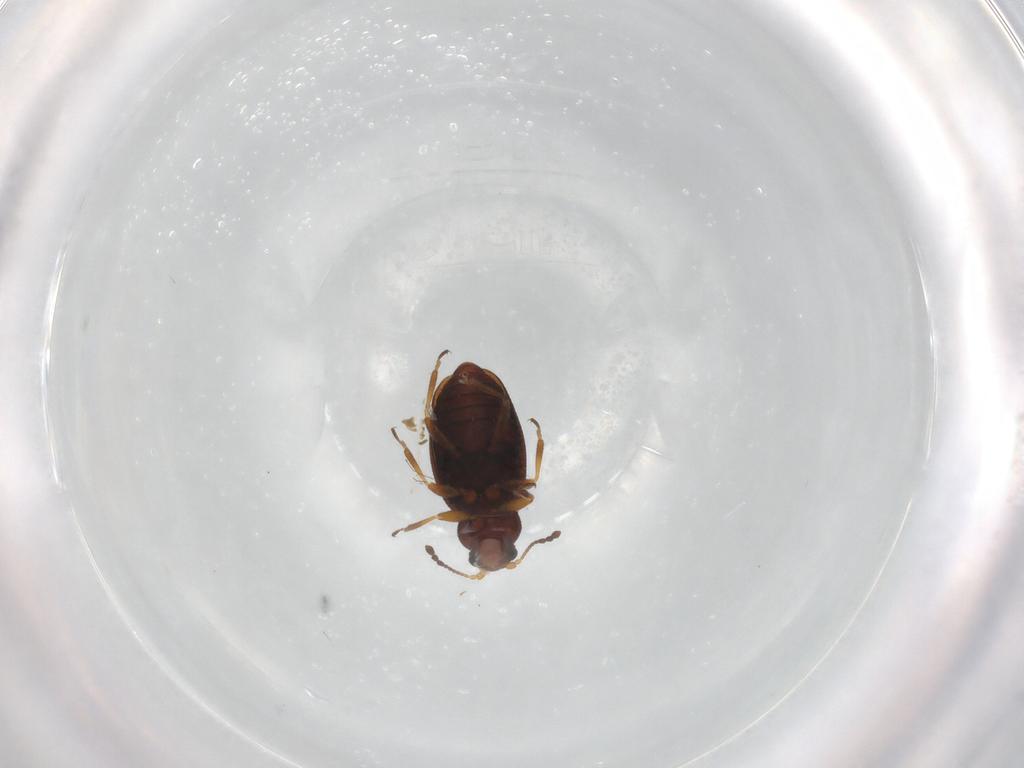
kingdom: Animalia
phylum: Arthropoda
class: Insecta
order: Coleoptera
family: Latridiidae
